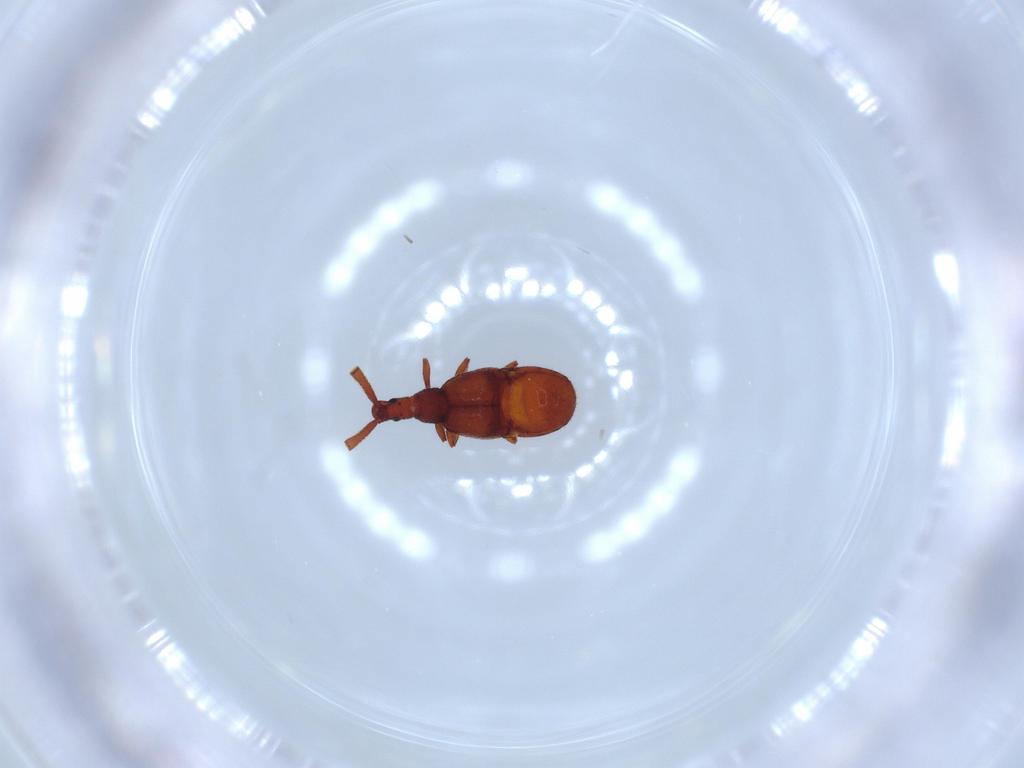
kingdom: Animalia
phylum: Arthropoda
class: Insecta
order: Coleoptera
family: Staphylinidae
